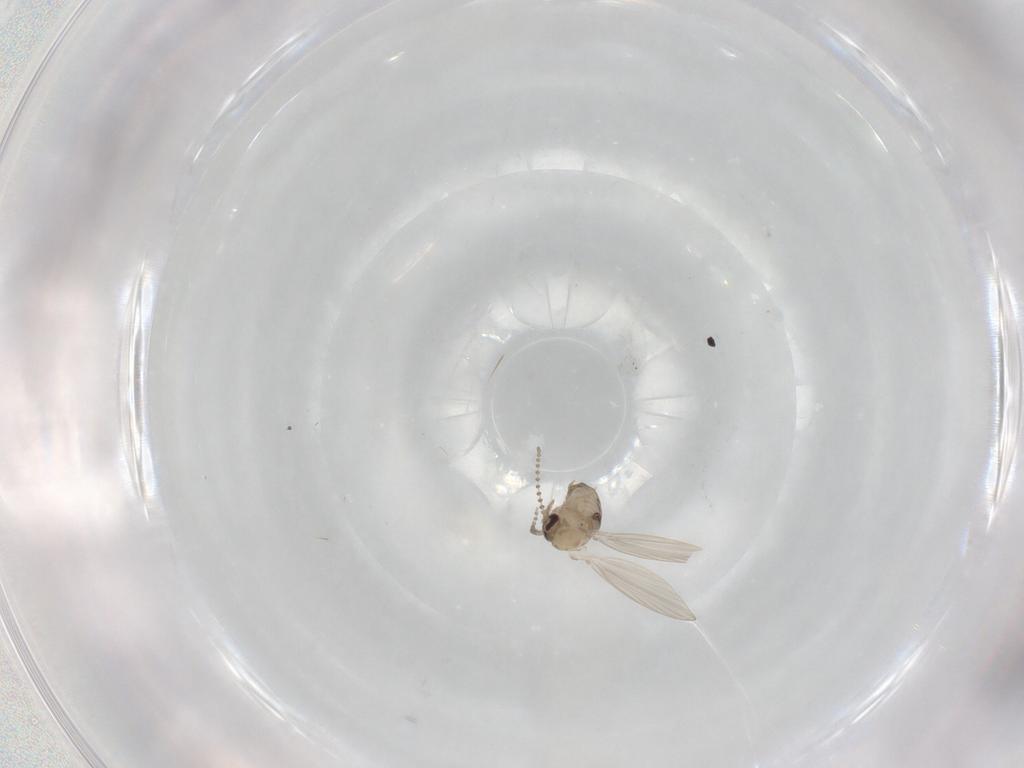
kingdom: Animalia
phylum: Arthropoda
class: Insecta
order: Diptera
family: Psychodidae
